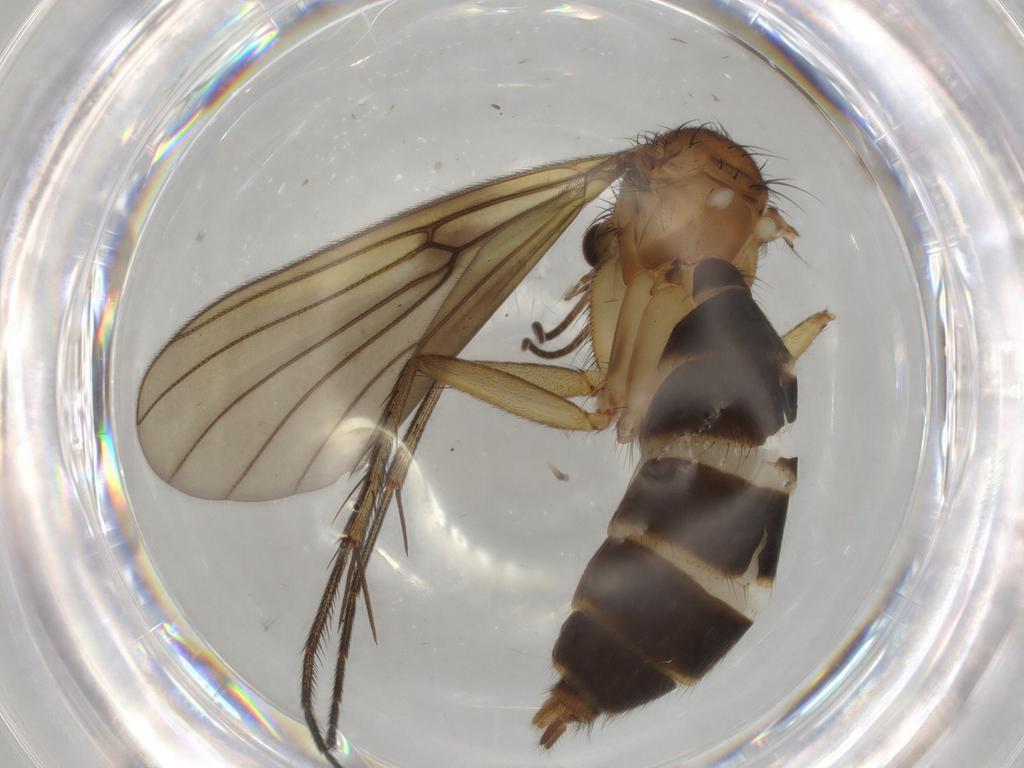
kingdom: Animalia
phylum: Arthropoda
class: Insecta
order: Diptera
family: Mycetophilidae
